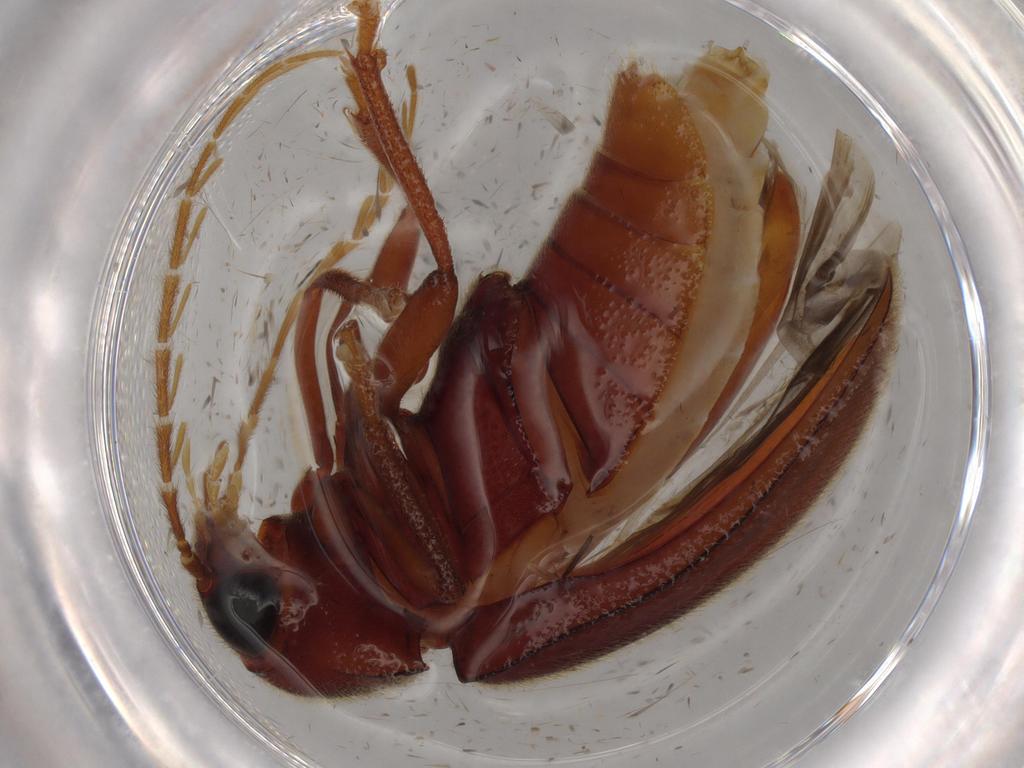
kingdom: Animalia
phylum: Arthropoda
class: Insecta
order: Coleoptera
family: Ptilodactylidae
